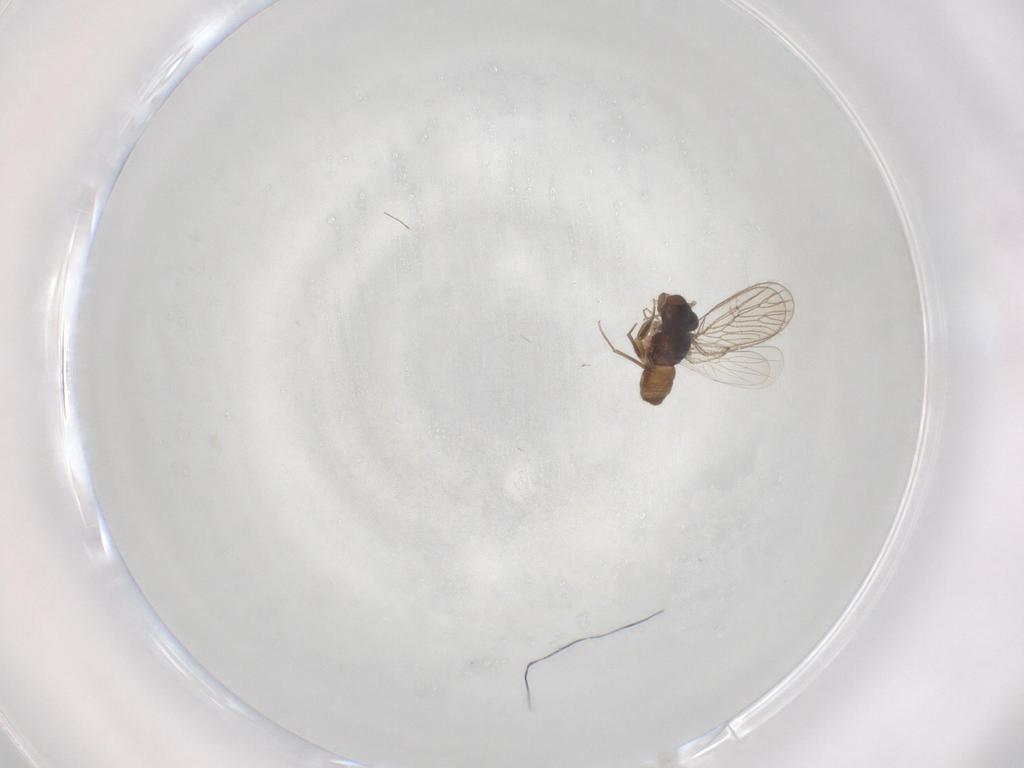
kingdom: Animalia
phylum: Arthropoda
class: Insecta
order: Psocodea
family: Psoquillidae
